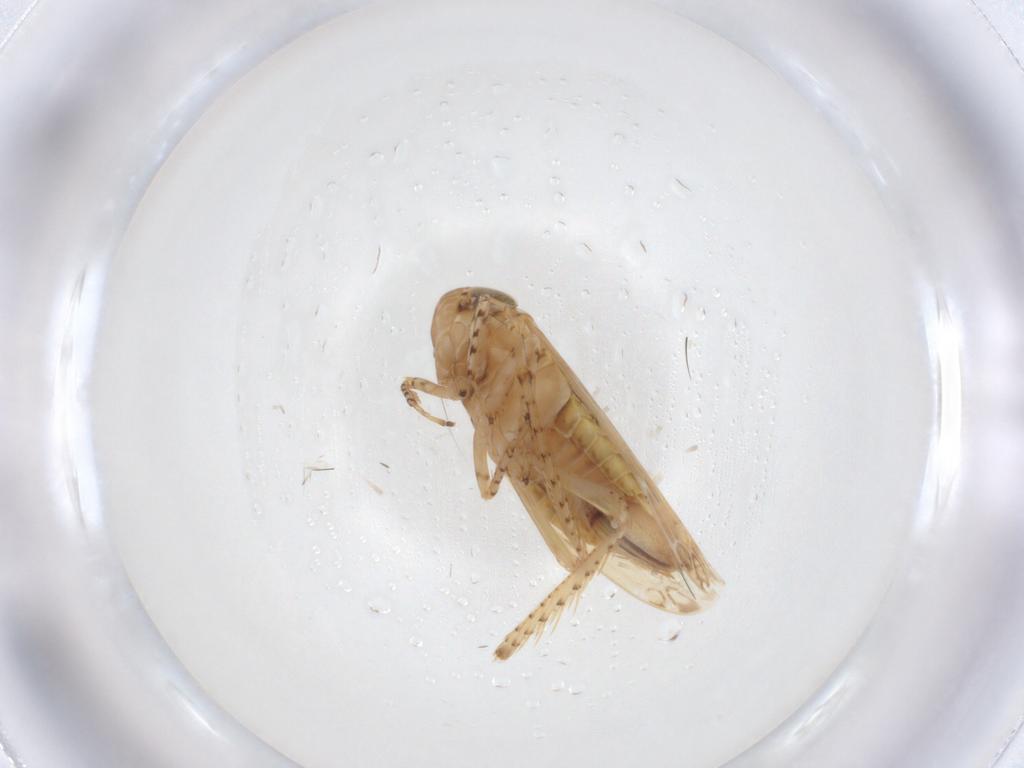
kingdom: Animalia
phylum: Arthropoda
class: Insecta
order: Hemiptera
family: Cicadellidae
